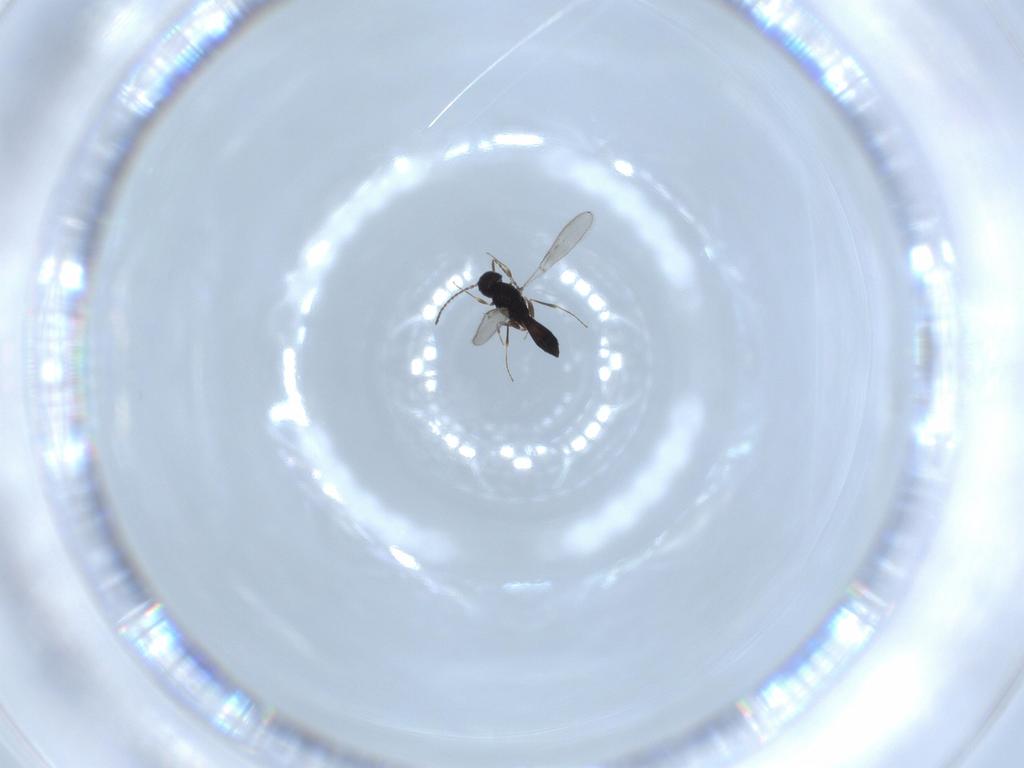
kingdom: Animalia
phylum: Arthropoda
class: Insecta
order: Hymenoptera
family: Scelionidae
